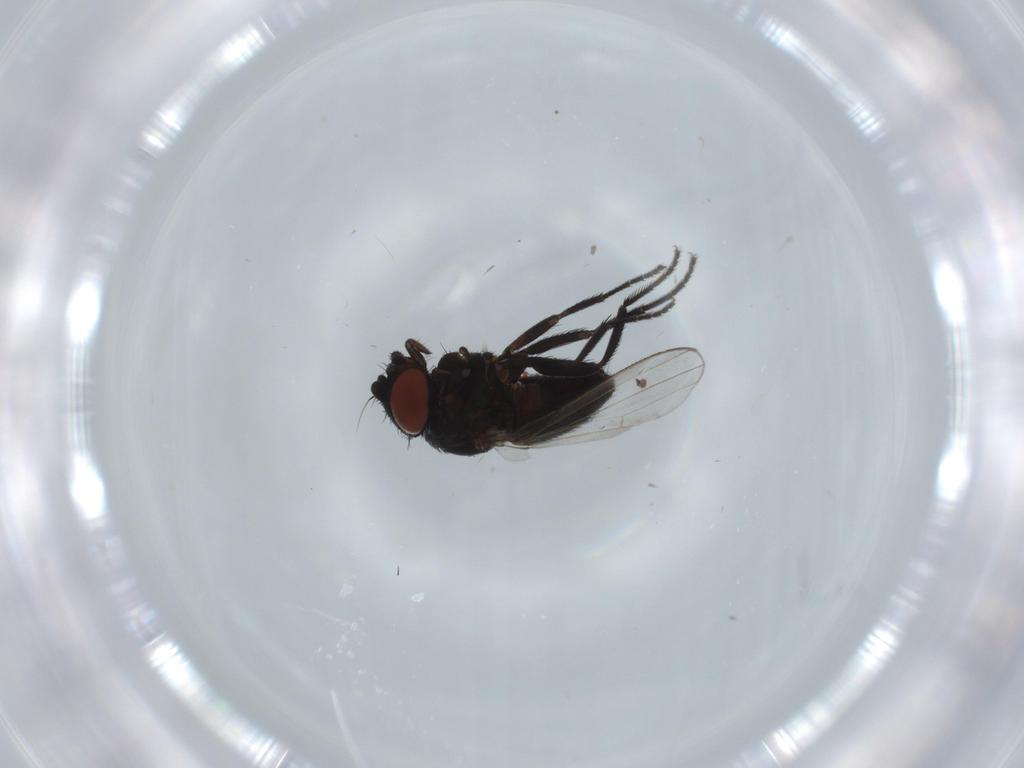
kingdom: Animalia
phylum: Arthropoda
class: Insecta
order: Diptera
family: Milichiidae
